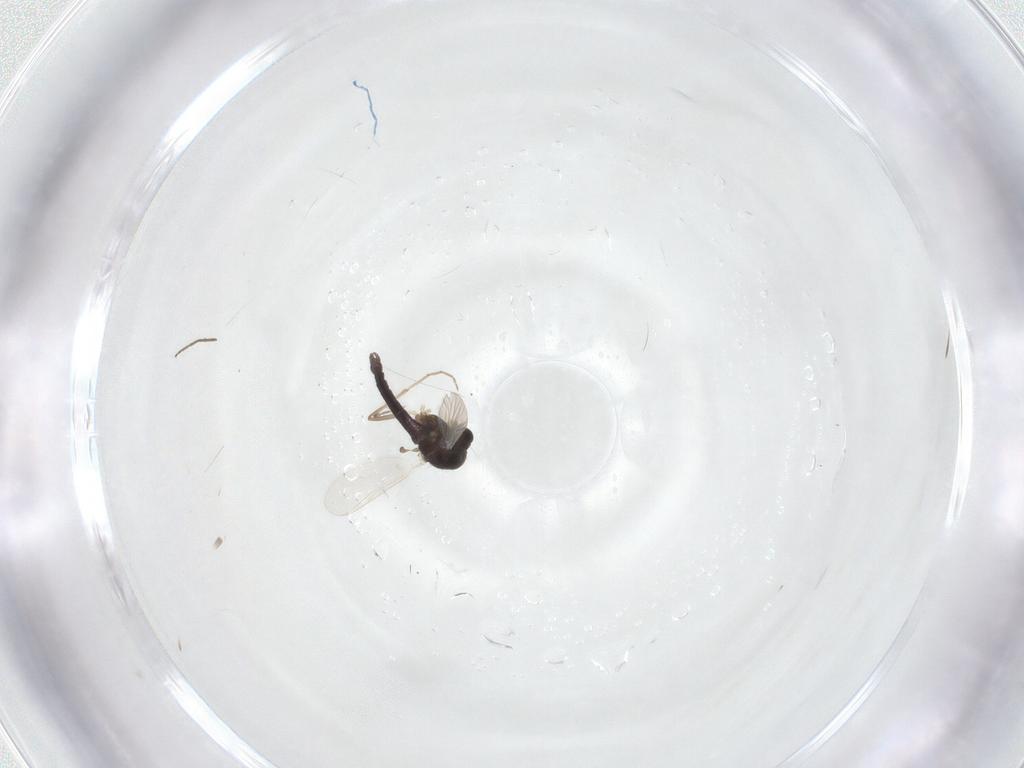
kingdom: Animalia
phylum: Arthropoda
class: Insecta
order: Diptera
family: Chironomidae
